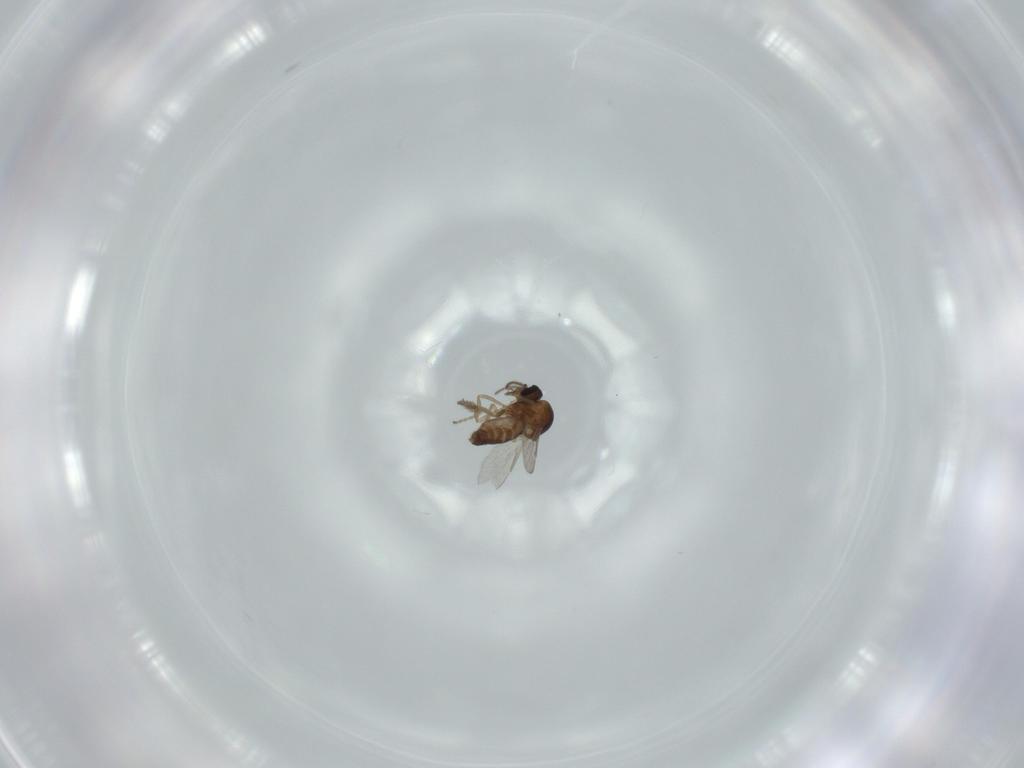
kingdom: Animalia
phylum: Arthropoda
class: Insecta
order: Diptera
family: Ceratopogonidae
